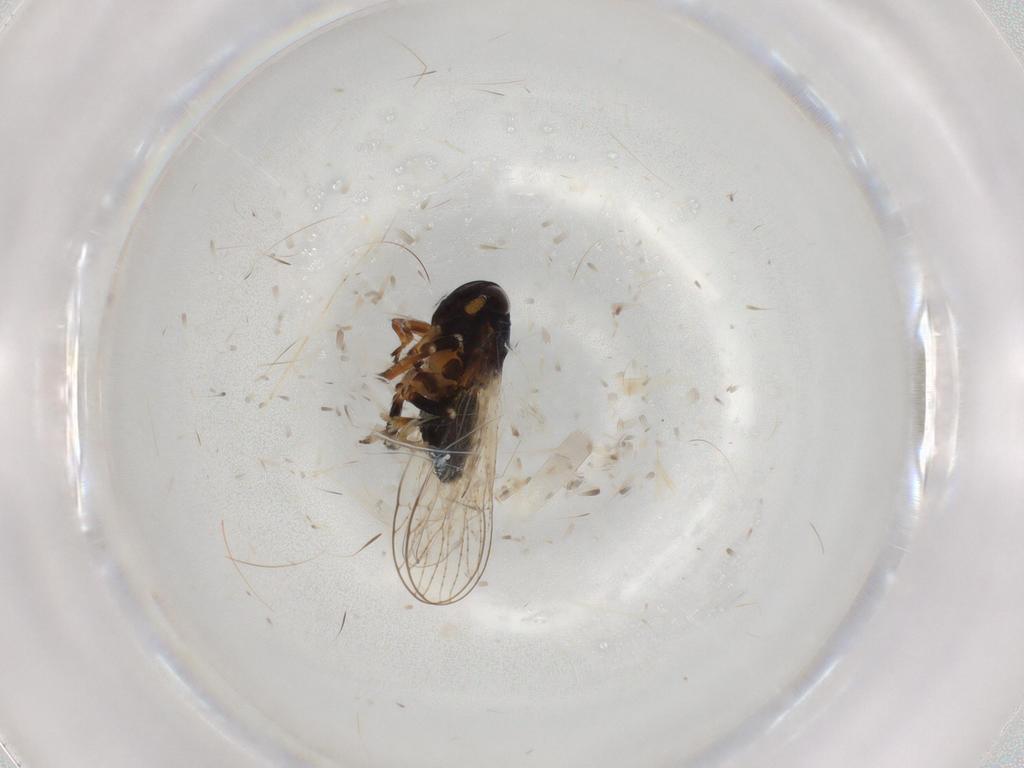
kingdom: Animalia
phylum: Arthropoda
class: Insecta
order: Hemiptera
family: Delphacidae
